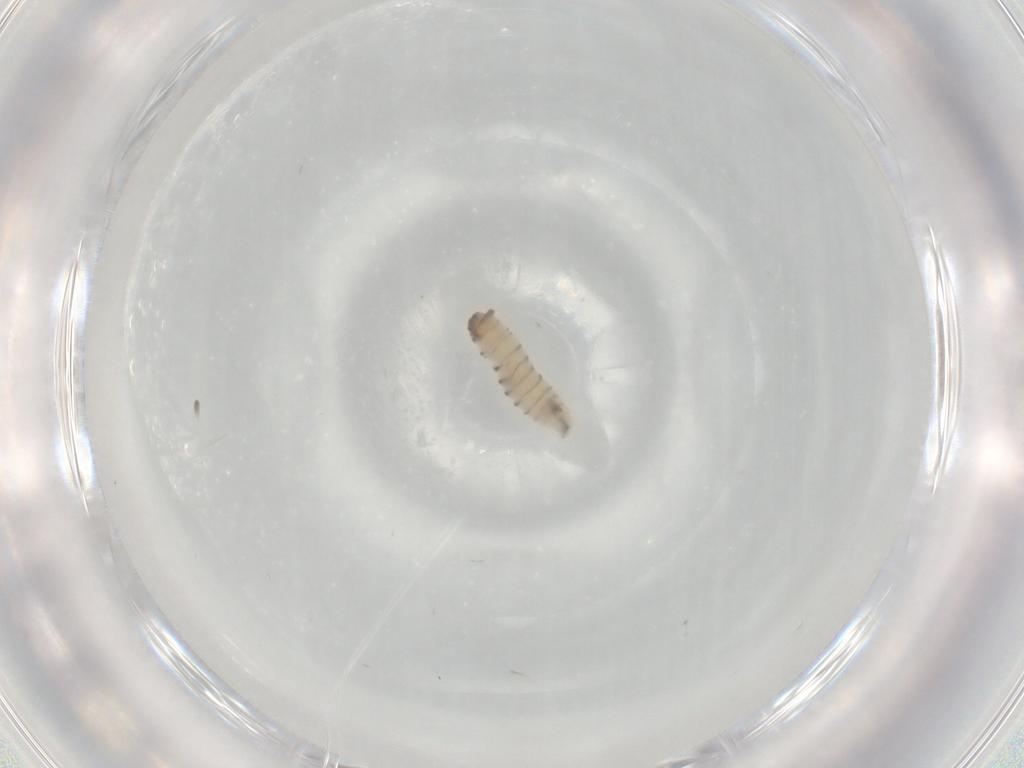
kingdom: Animalia
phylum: Arthropoda
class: Insecta
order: Diptera
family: Sarcophagidae
